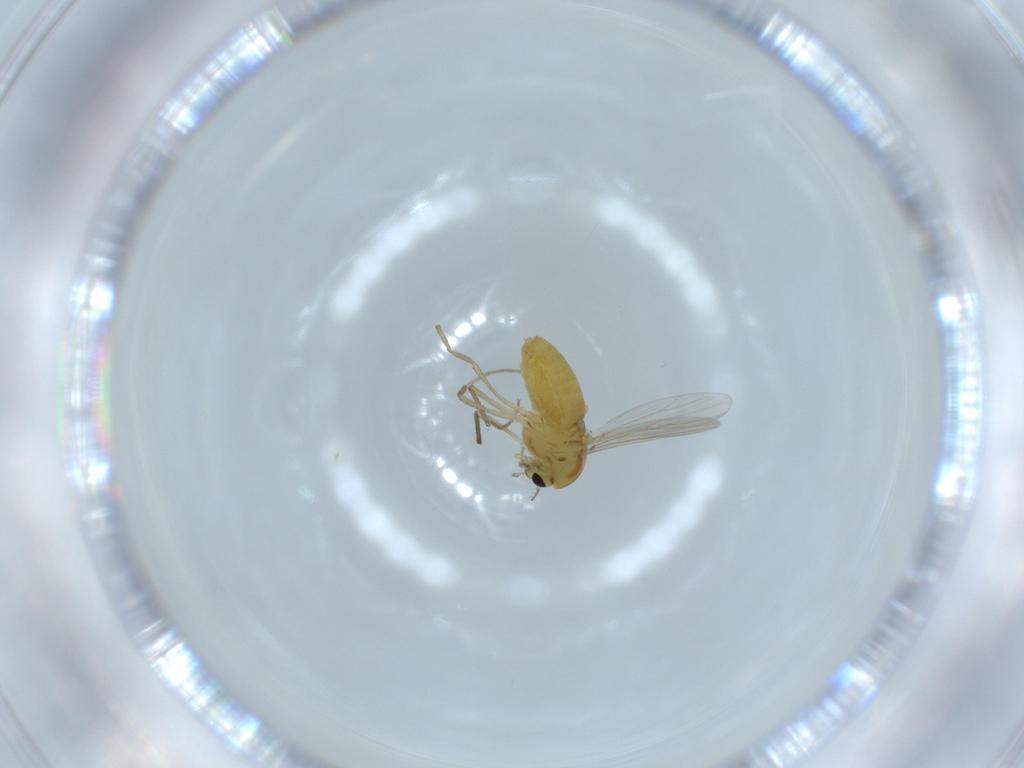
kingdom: Animalia
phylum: Arthropoda
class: Insecta
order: Diptera
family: Chironomidae
